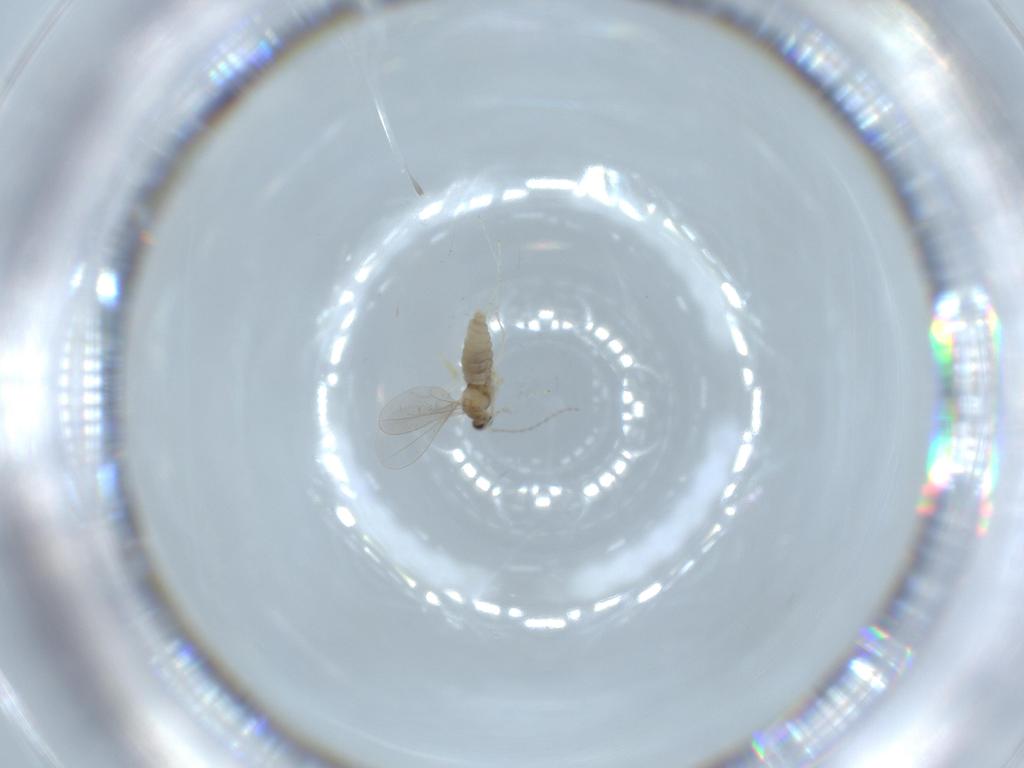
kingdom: Animalia
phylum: Arthropoda
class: Insecta
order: Diptera
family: Cecidomyiidae
